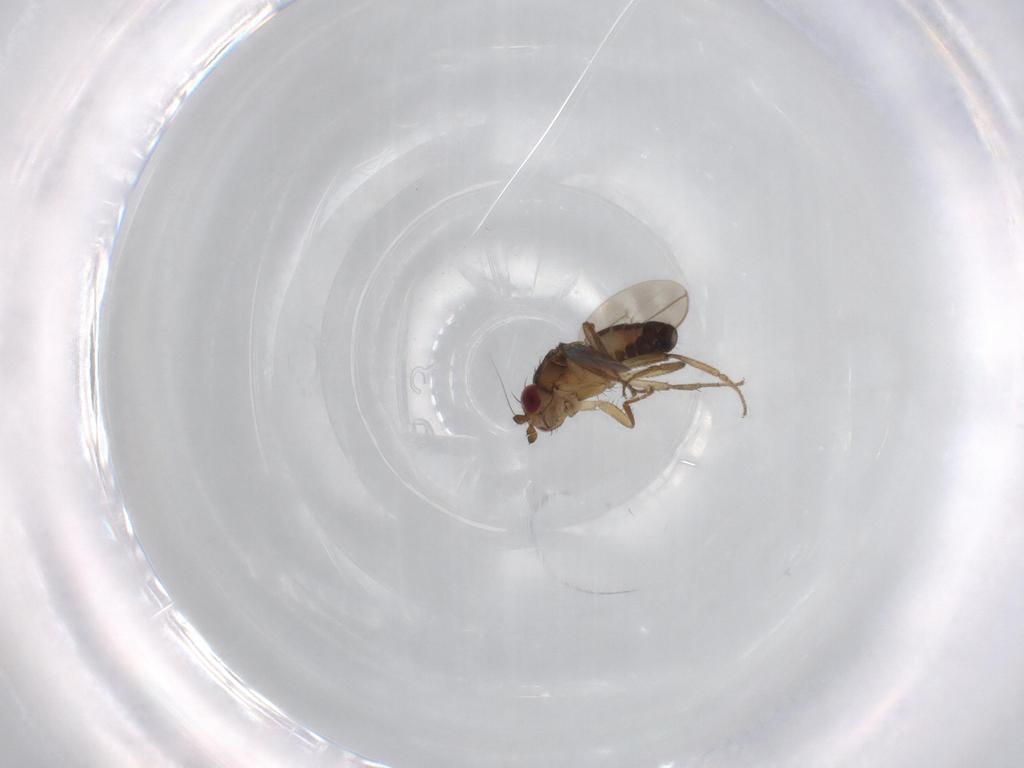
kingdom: Animalia
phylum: Arthropoda
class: Insecta
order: Diptera
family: Sphaeroceridae
